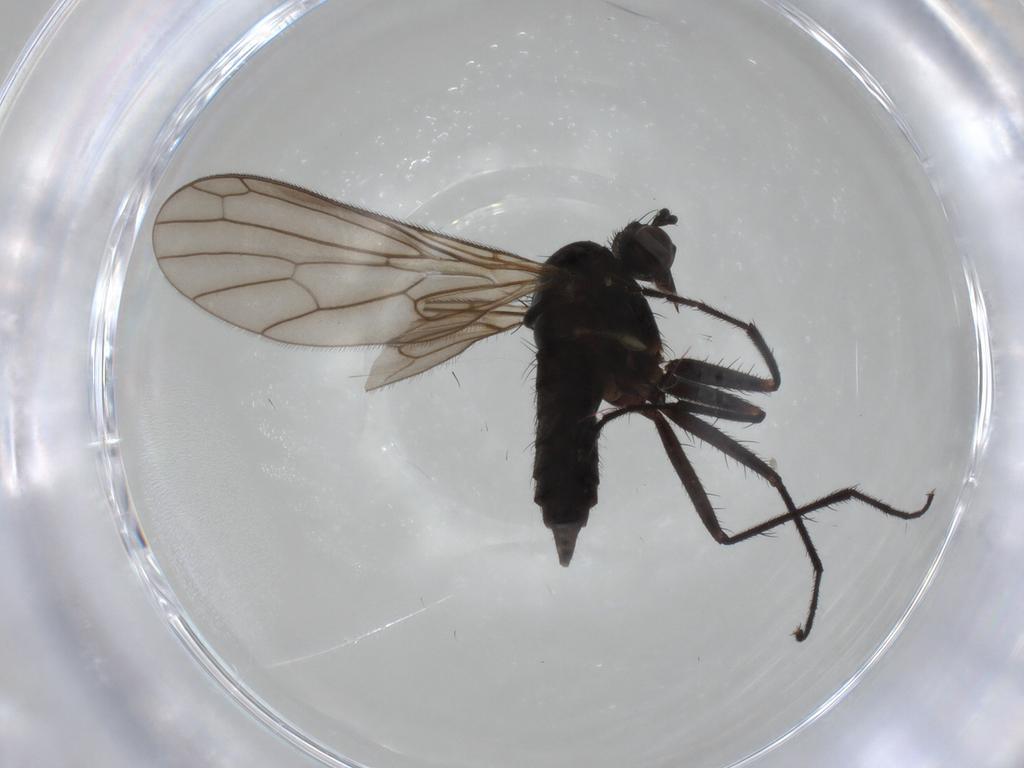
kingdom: Animalia
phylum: Arthropoda
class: Insecta
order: Diptera
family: Empididae
